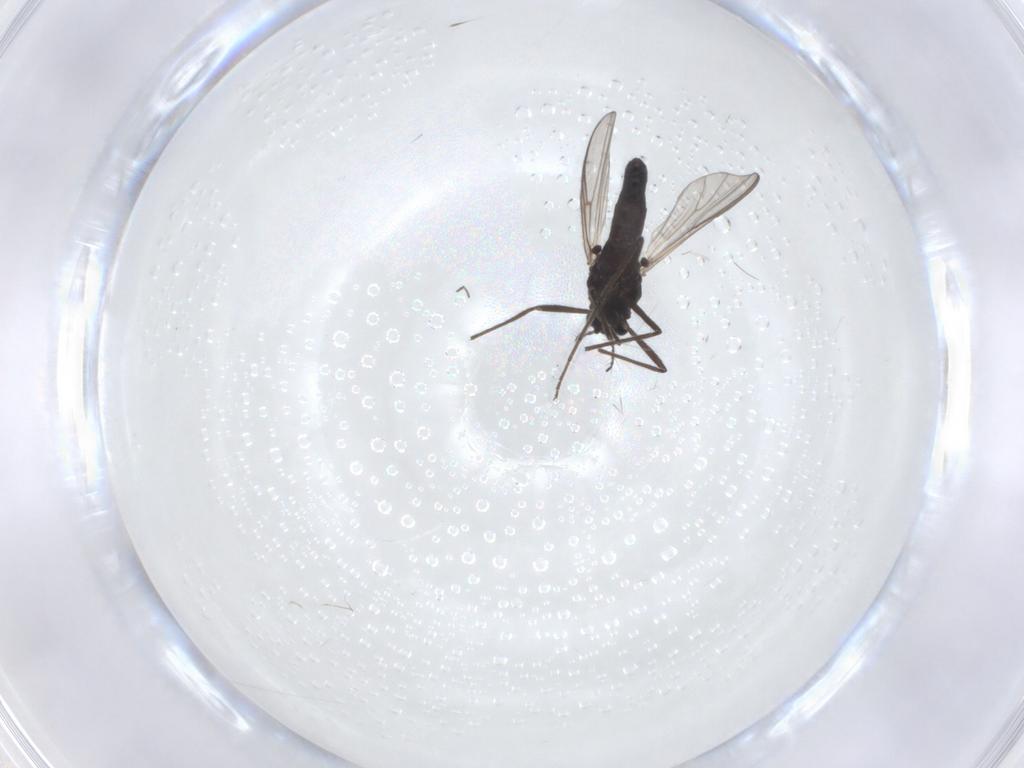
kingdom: Animalia
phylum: Arthropoda
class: Insecta
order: Diptera
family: Chironomidae
